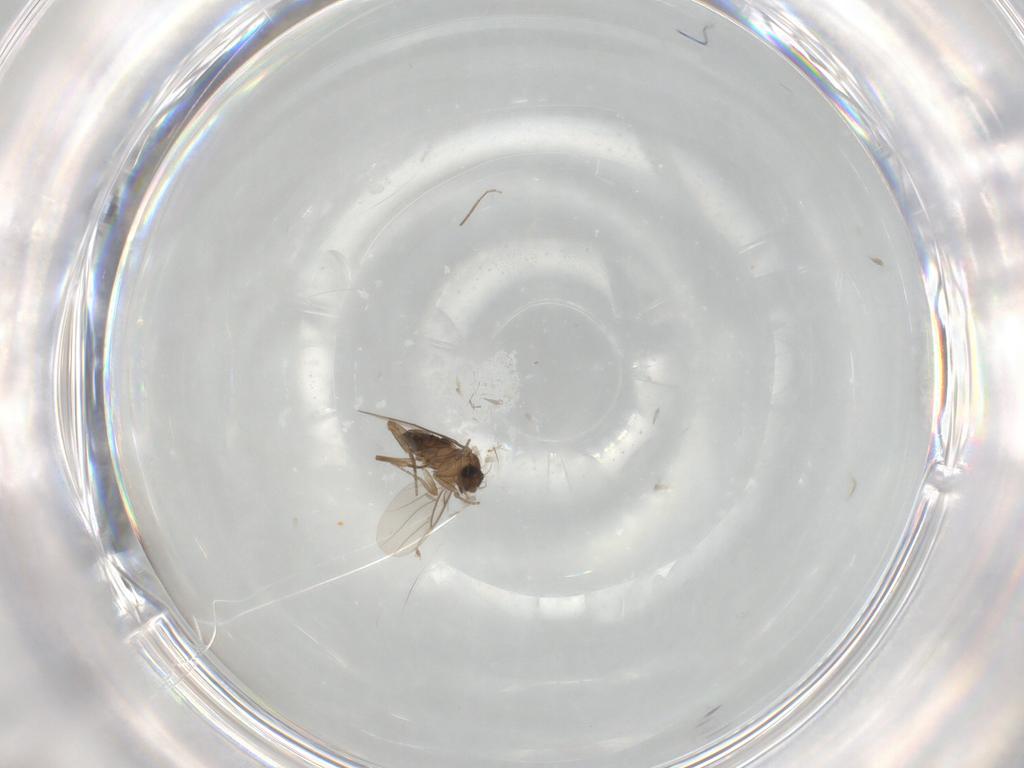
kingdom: Animalia
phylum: Arthropoda
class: Insecta
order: Diptera
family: Phoridae
